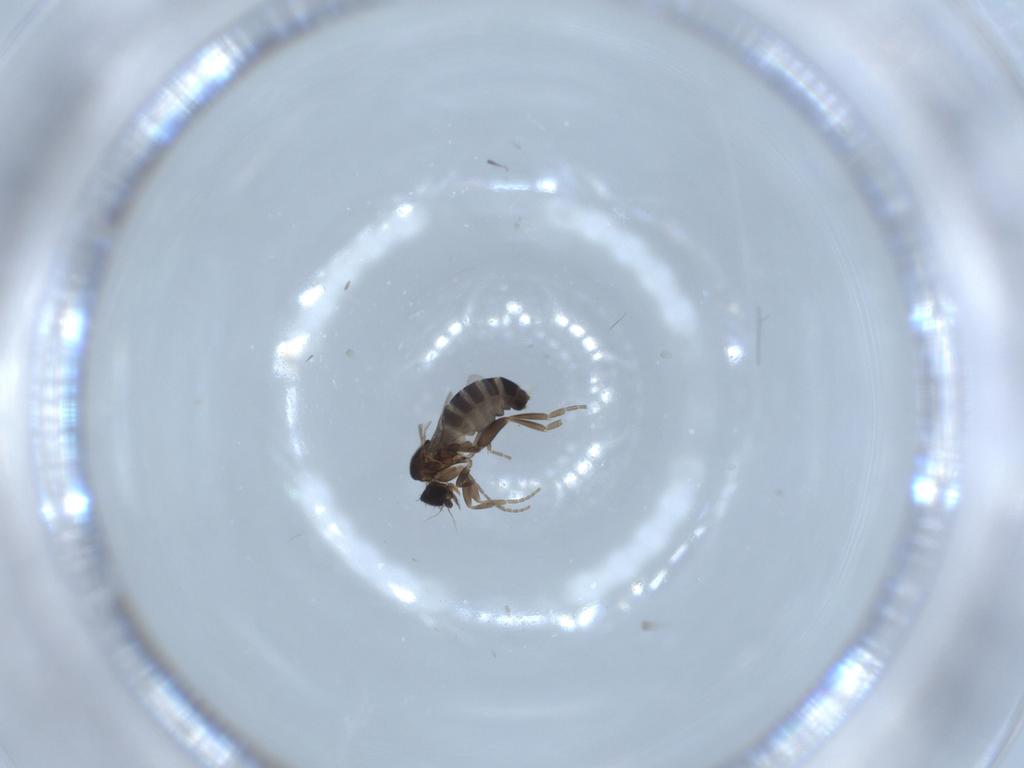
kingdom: Animalia
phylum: Arthropoda
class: Insecta
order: Diptera
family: Phoridae
